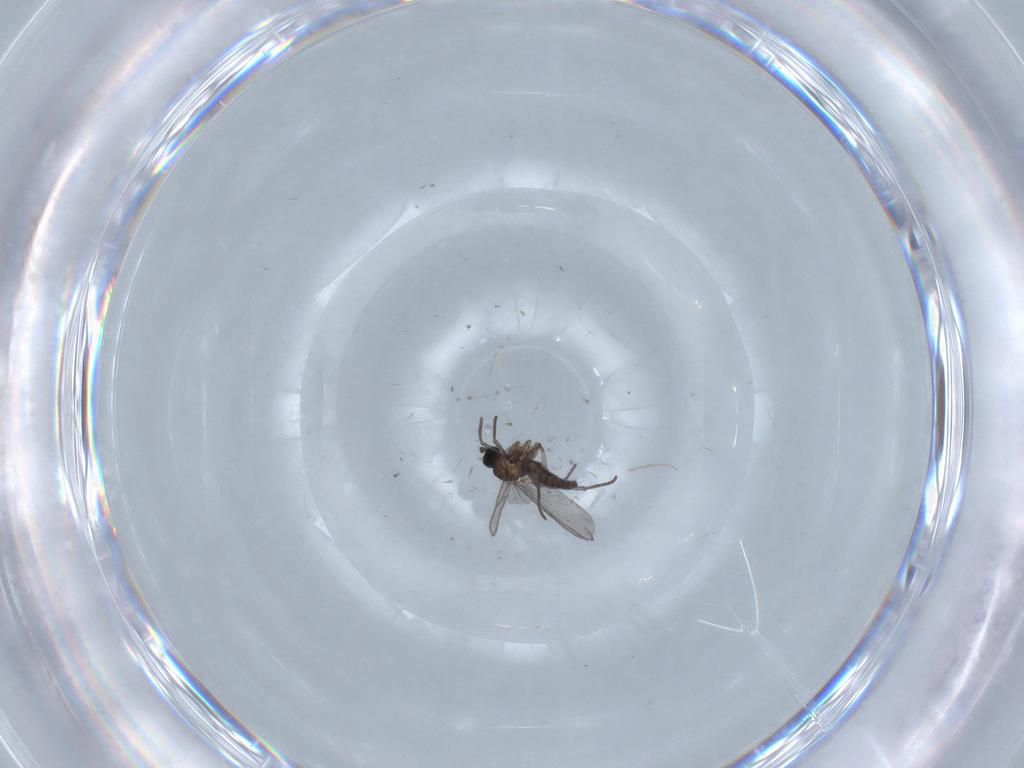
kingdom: Animalia
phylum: Arthropoda
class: Insecta
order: Diptera
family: Chironomidae
